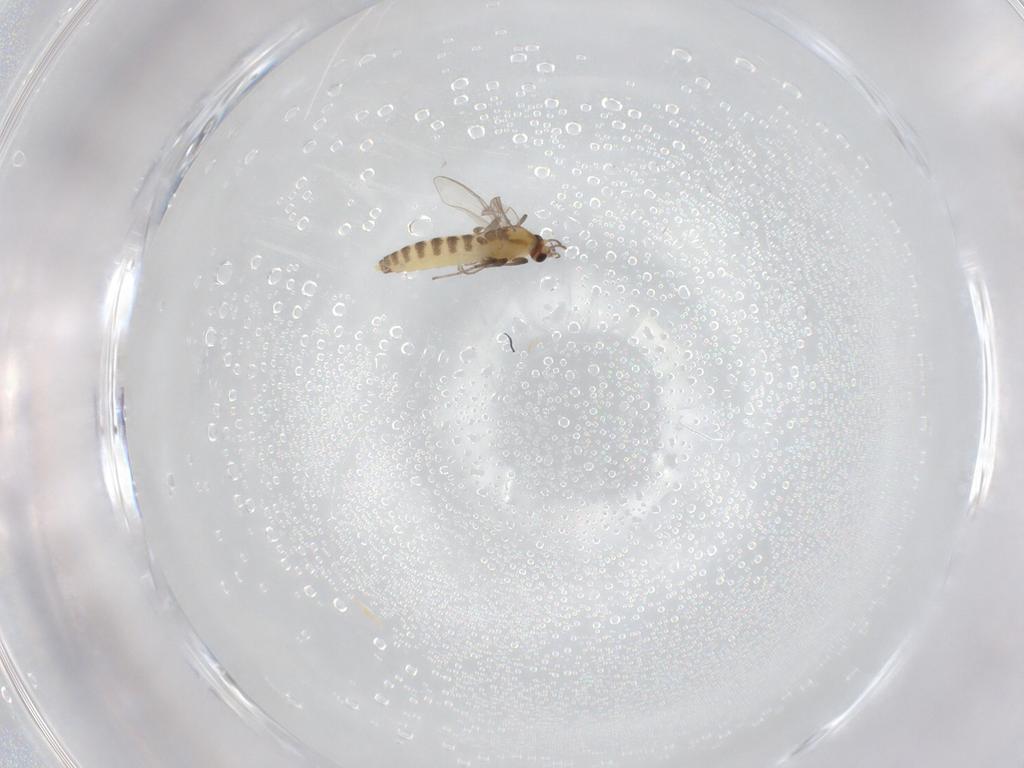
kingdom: Animalia
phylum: Arthropoda
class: Insecta
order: Diptera
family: Chironomidae
